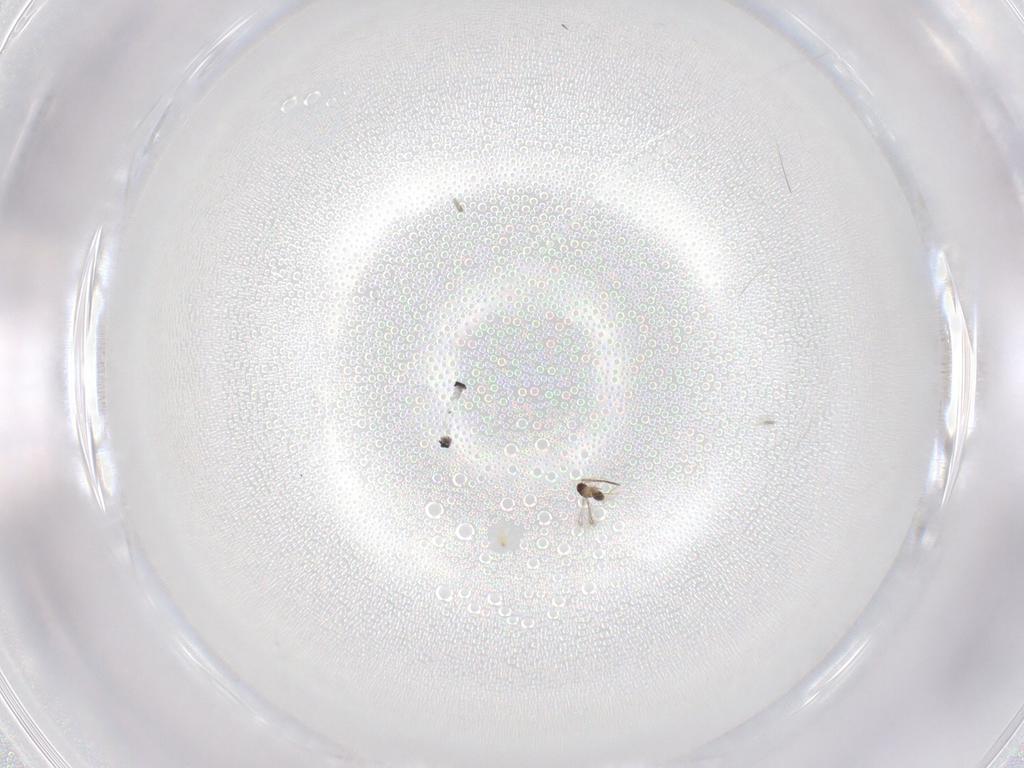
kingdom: Animalia
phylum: Arthropoda
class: Insecta
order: Hymenoptera
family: Mymaridae
